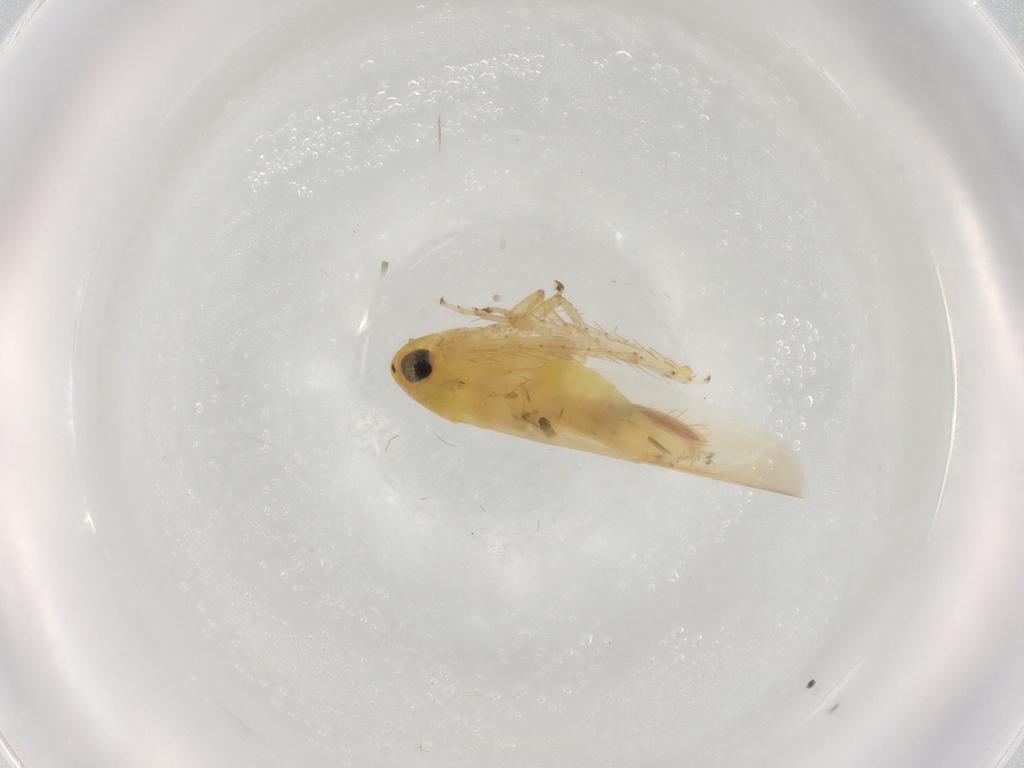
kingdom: Animalia
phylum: Arthropoda
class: Insecta
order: Hemiptera
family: Cicadellidae
